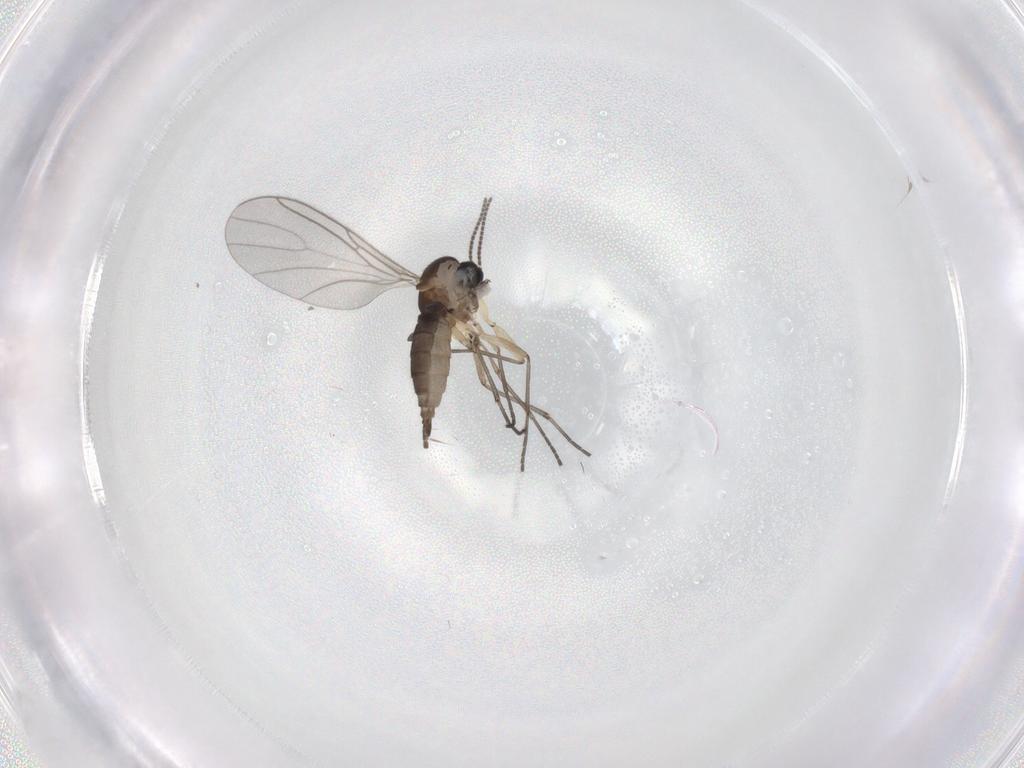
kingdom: Animalia
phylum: Arthropoda
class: Insecta
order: Diptera
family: Sciaridae
